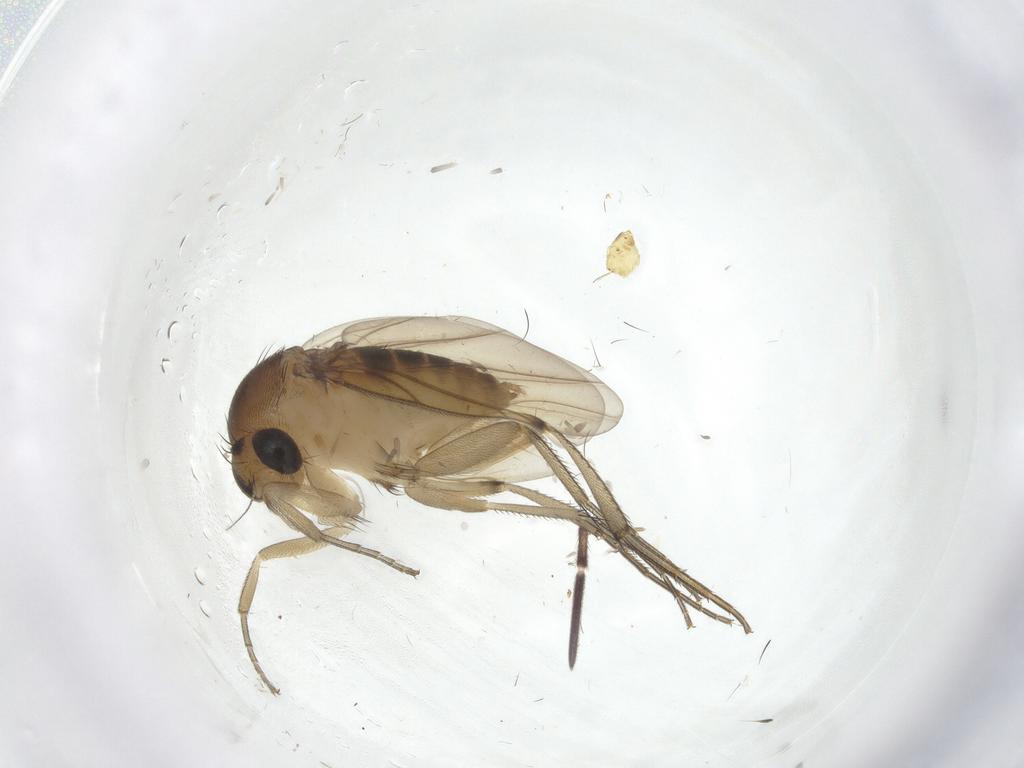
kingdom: Animalia
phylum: Arthropoda
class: Insecta
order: Diptera
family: Phoridae
